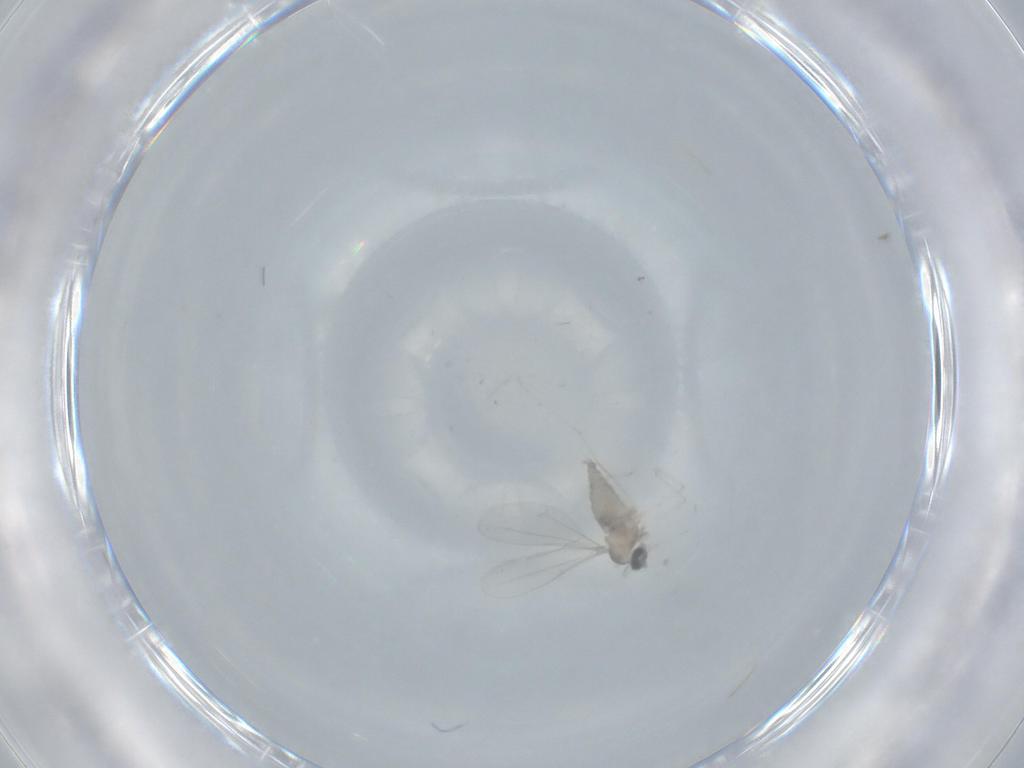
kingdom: Animalia
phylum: Arthropoda
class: Insecta
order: Diptera
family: Cecidomyiidae
